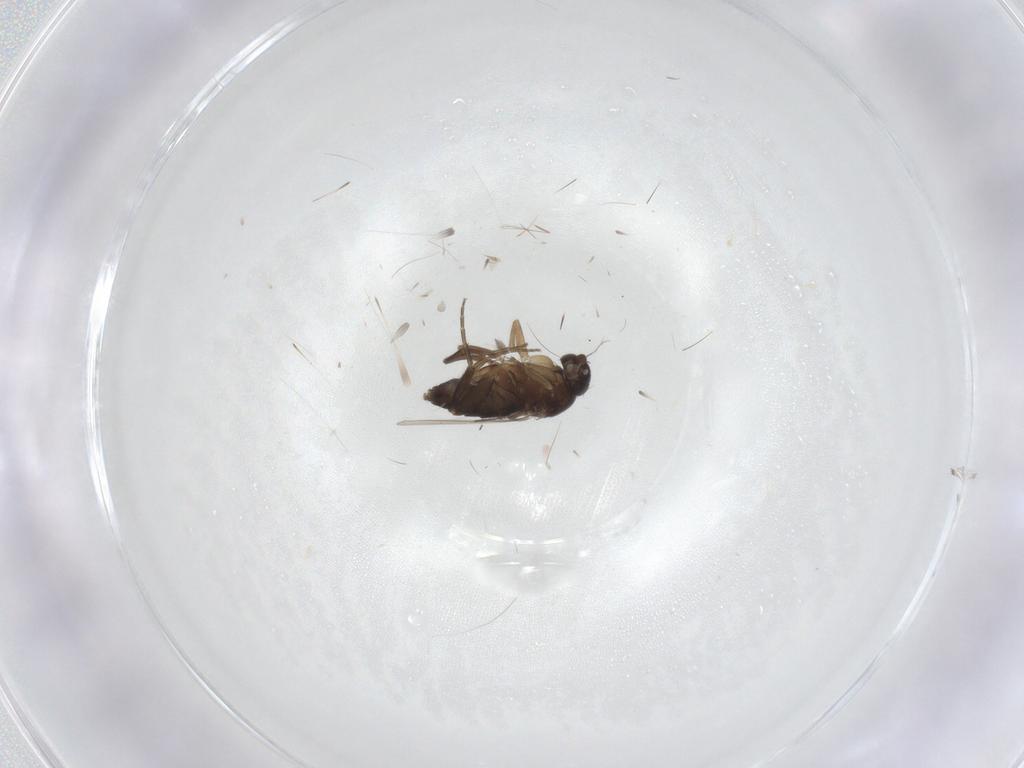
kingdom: Animalia
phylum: Arthropoda
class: Insecta
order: Diptera
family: Phoridae
